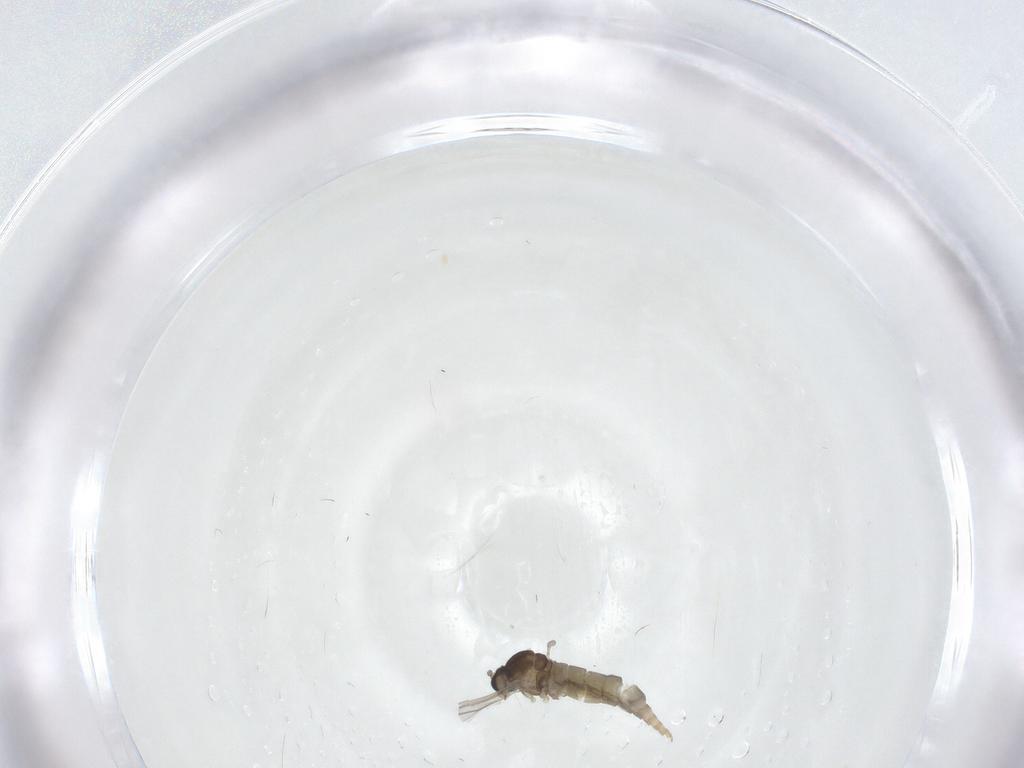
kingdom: Animalia
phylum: Arthropoda
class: Insecta
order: Diptera
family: Cecidomyiidae
